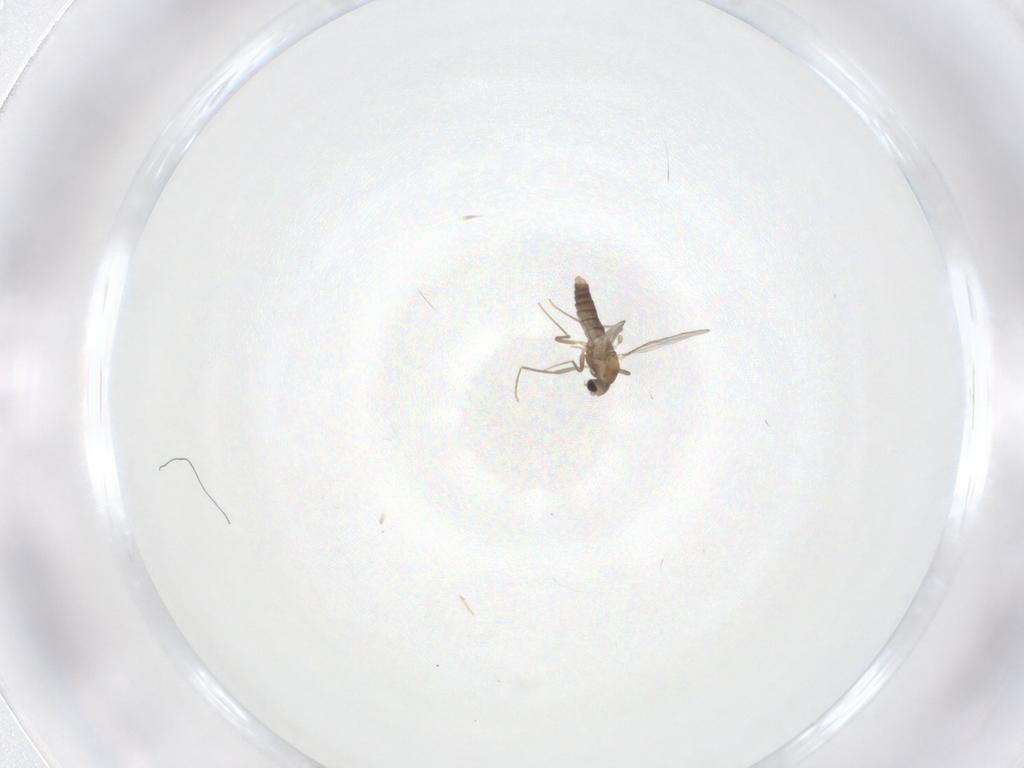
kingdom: Animalia
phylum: Arthropoda
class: Insecta
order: Diptera
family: Chironomidae
